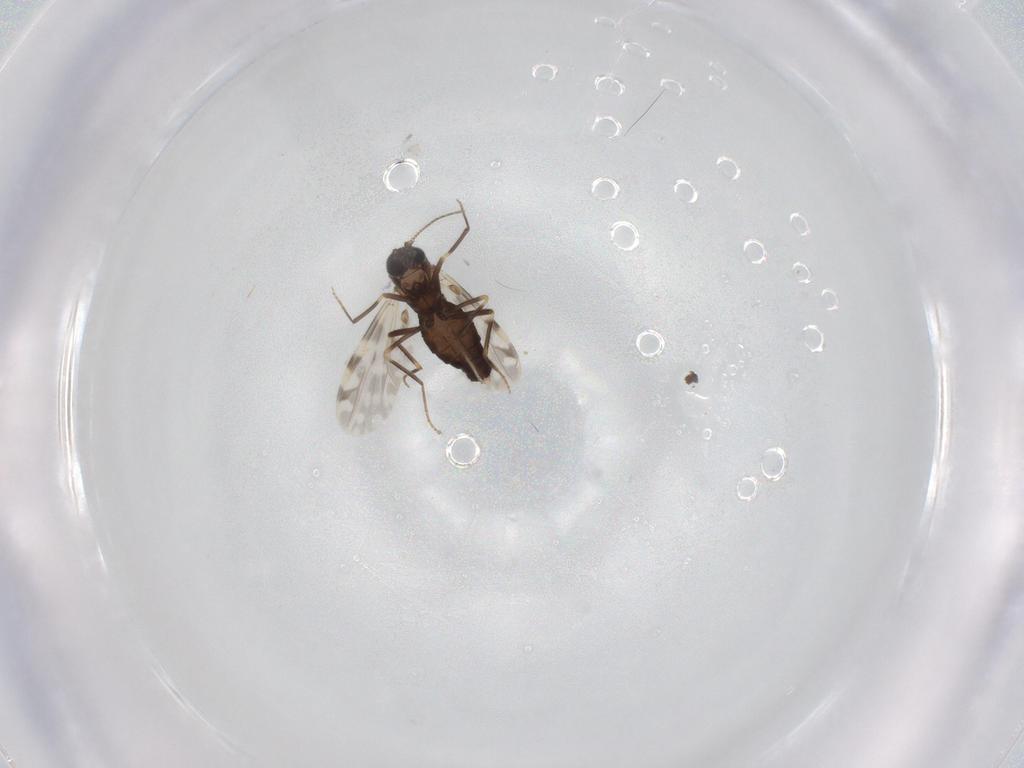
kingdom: Animalia
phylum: Arthropoda
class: Insecta
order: Diptera
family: Ceratopogonidae
